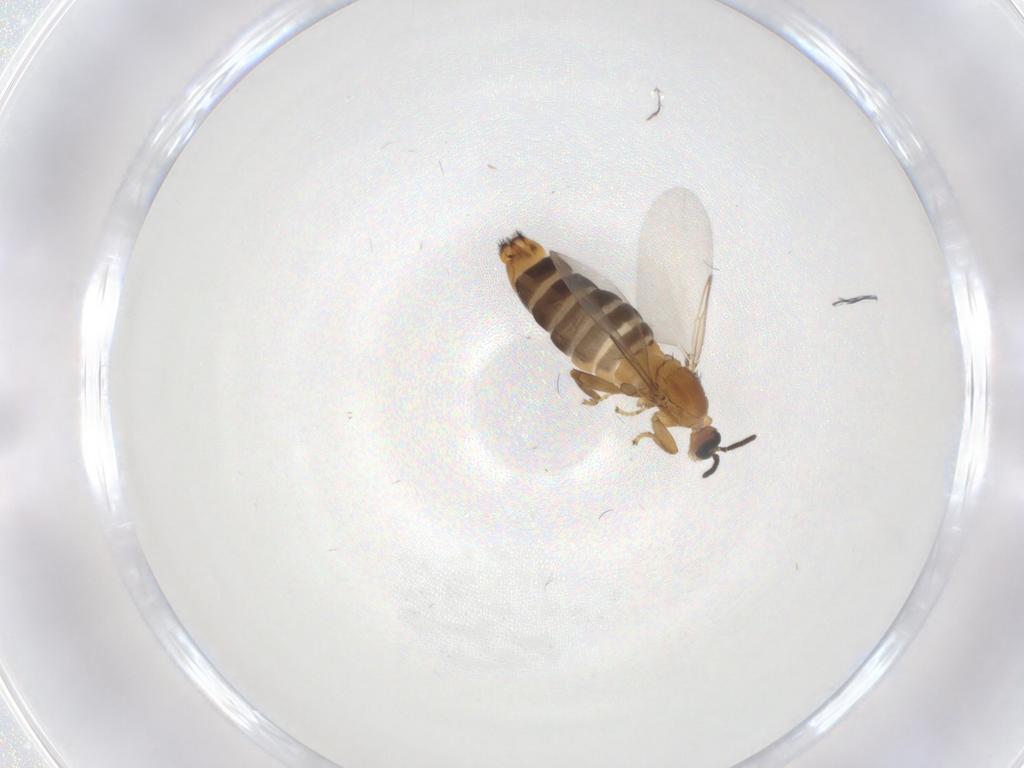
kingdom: Animalia
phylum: Arthropoda
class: Insecta
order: Diptera
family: Scatopsidae
